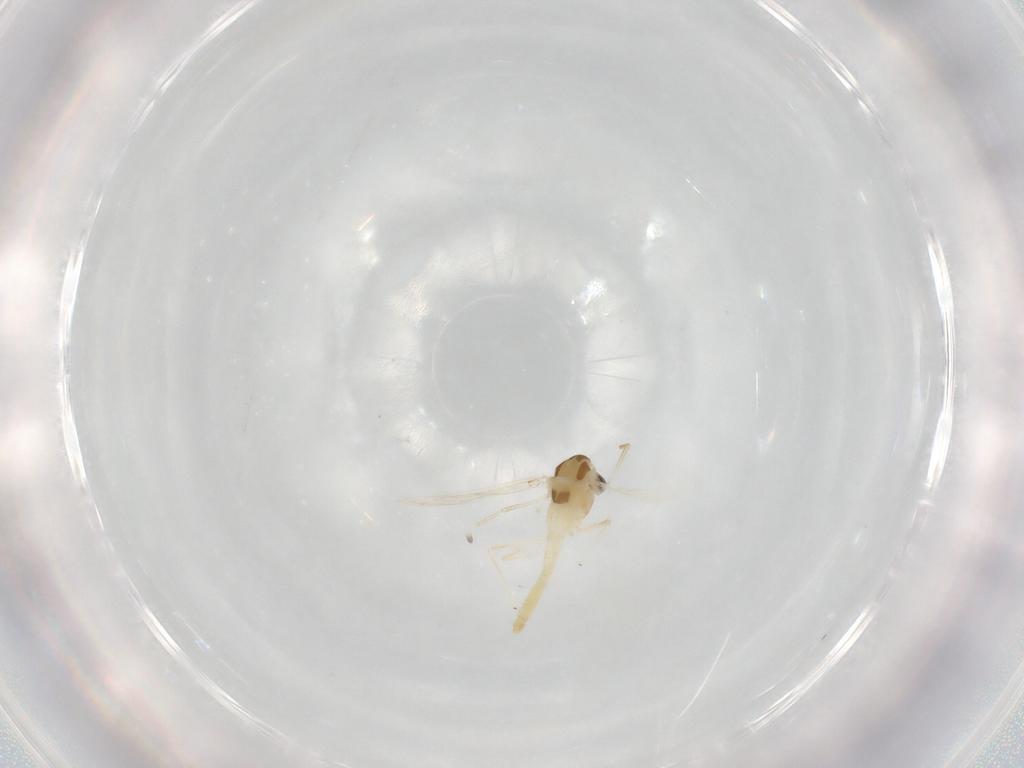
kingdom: Animalia
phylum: Arthropoda
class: Insecta
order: Diptera
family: Chironomidae
